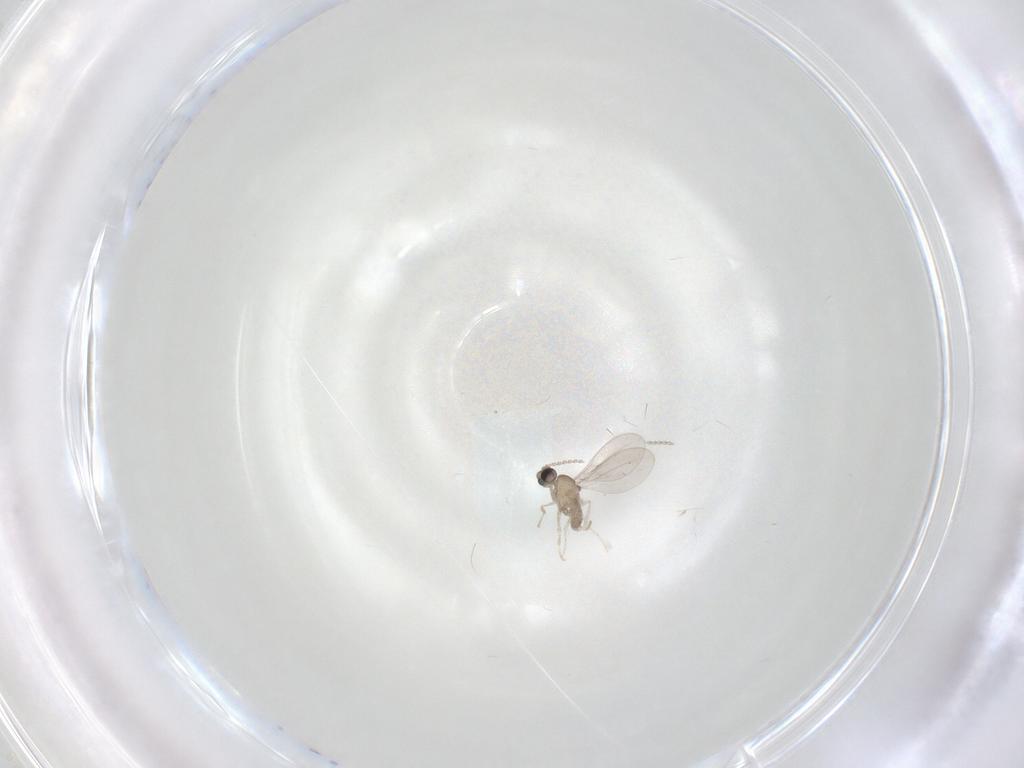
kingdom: Animalia
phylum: Arthropoda
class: Insecta
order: Diptera
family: Cecidomyiidae
